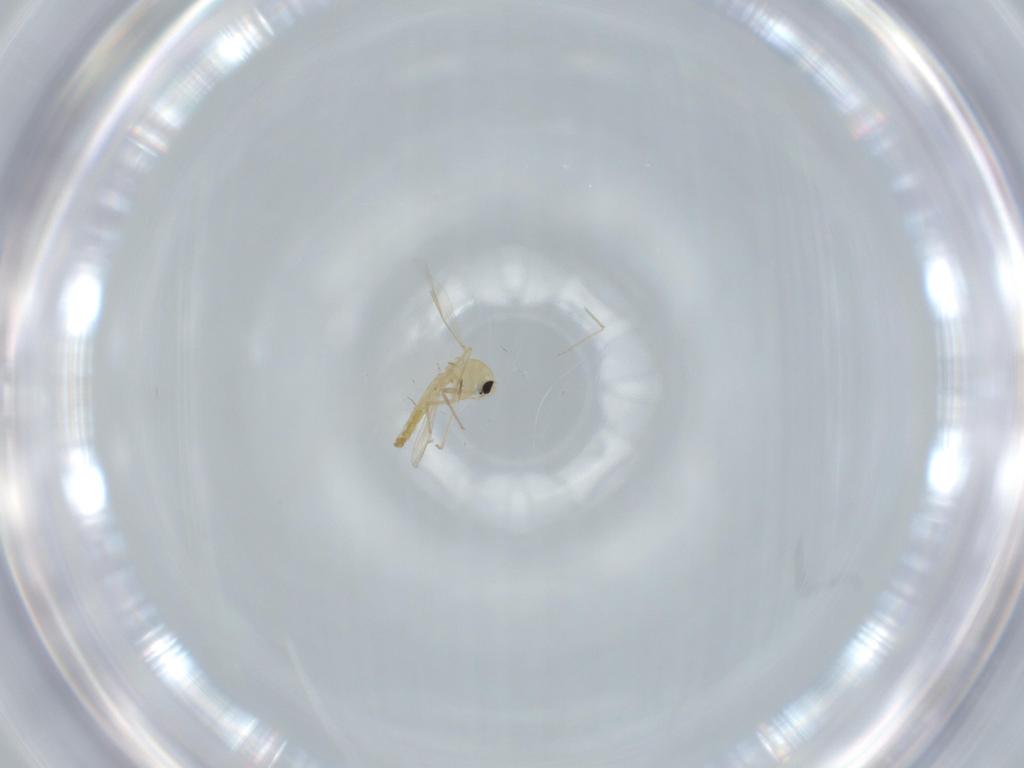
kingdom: Animalia
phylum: Arthropoda
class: Insecta
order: Diptera
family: Chironomidae
